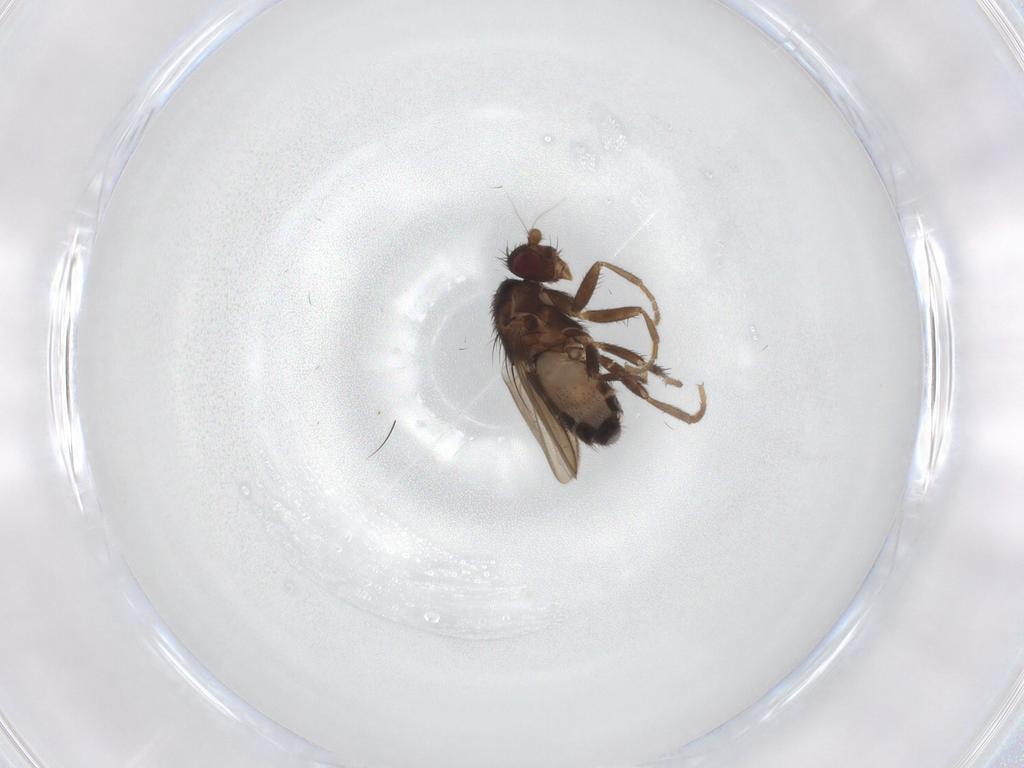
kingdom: Animalia
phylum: Arthropoda
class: Insecta
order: Diptera
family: Sphaeroceridae
